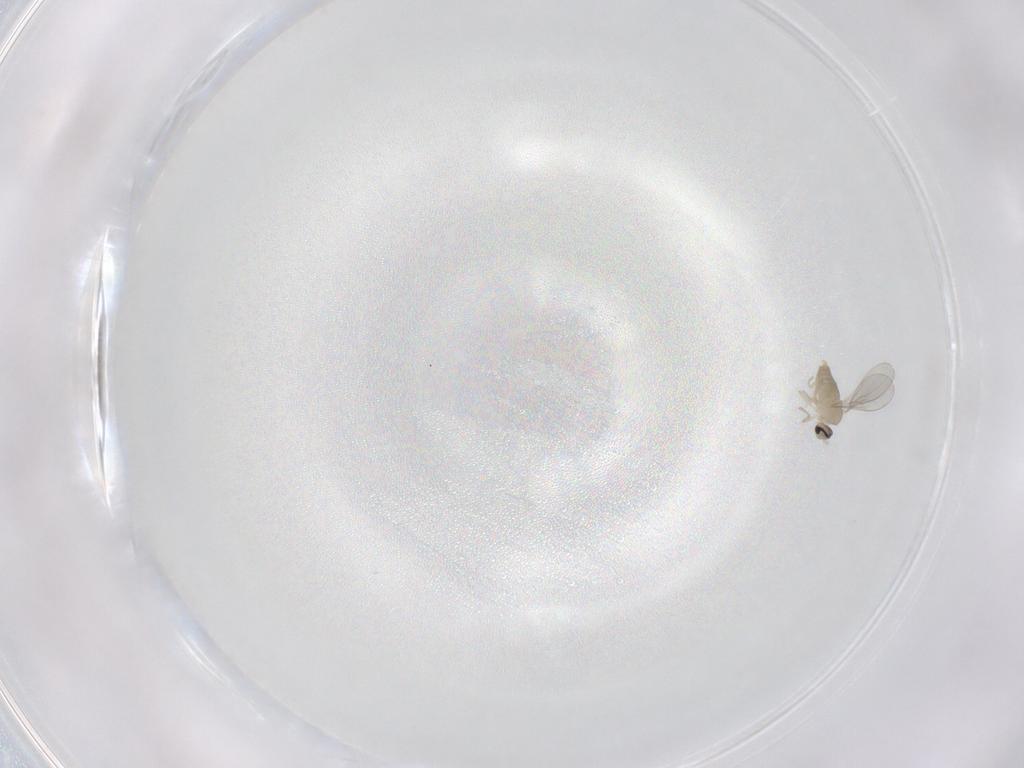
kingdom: Animalia
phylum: Arthropoda
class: Insecta
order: Diptera
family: Cecidomyiidae
